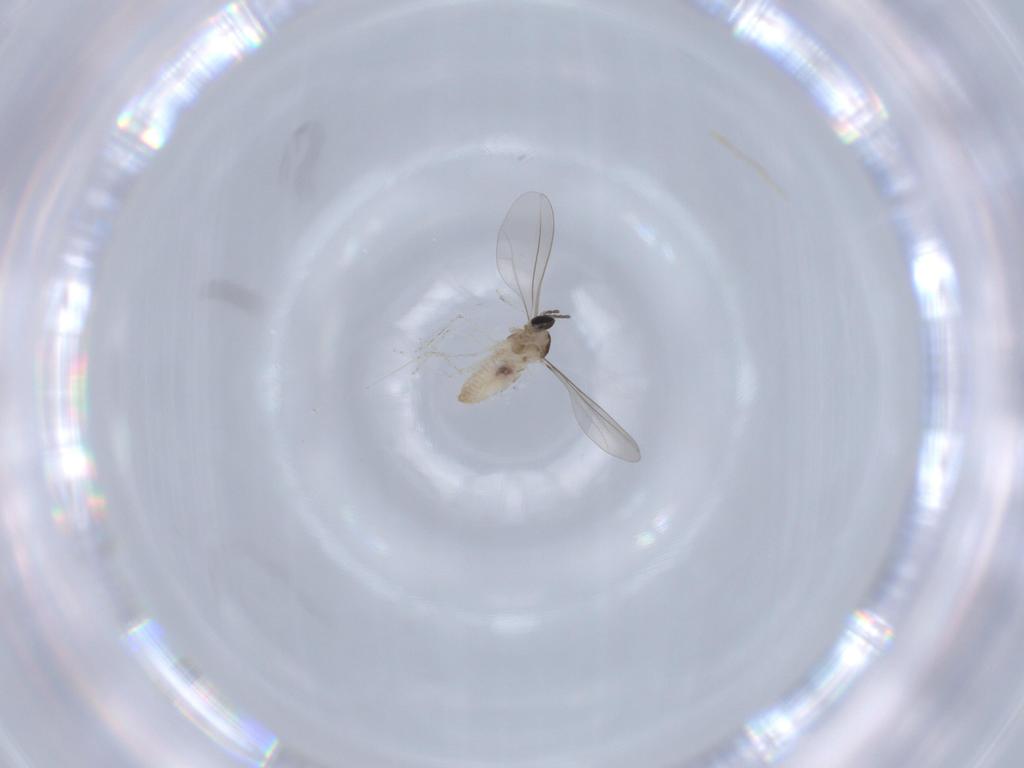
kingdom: Animalia
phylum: Arthropoda
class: Insecta
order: Diptera
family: Cecidomyiidae
